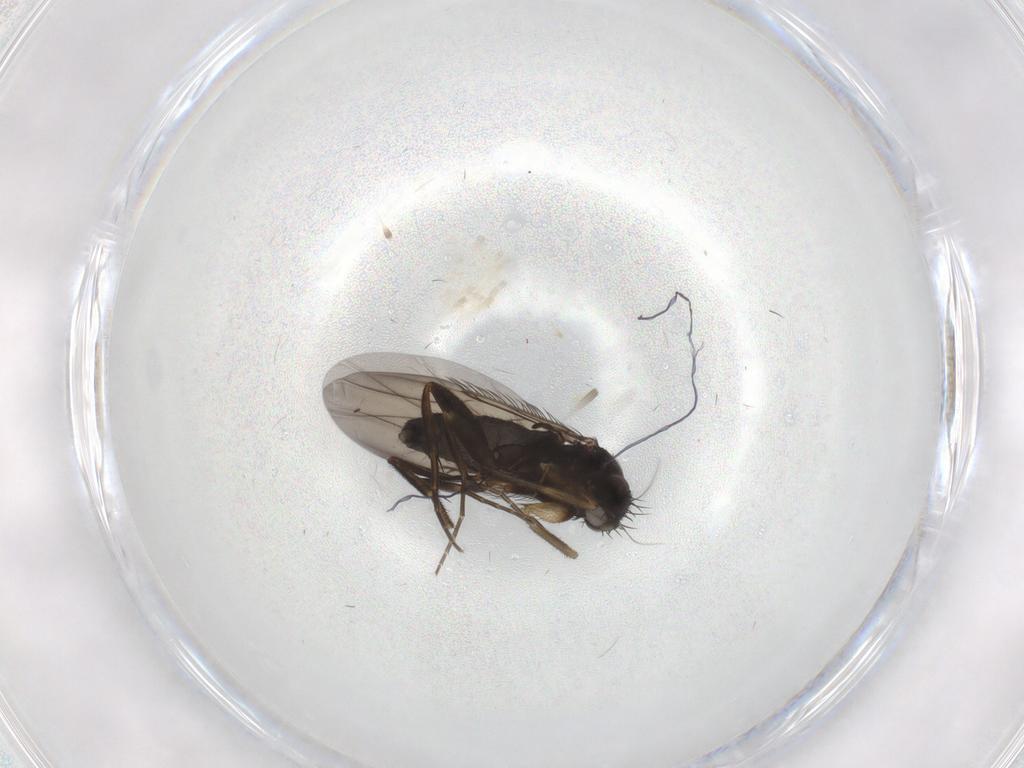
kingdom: Animalia
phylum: Arthropoda
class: Insecta
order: Diptera
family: Phoridae
